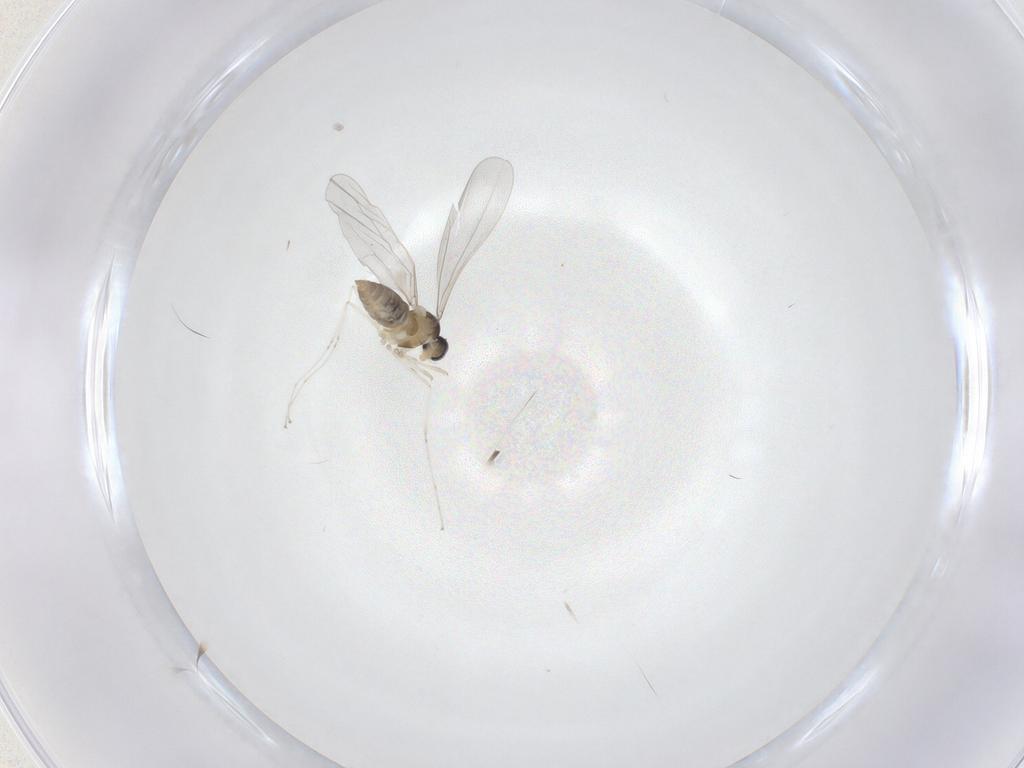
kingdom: Animalia
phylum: Arthropoda
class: Insecta
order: Diptera
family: Cecidomyiidae
